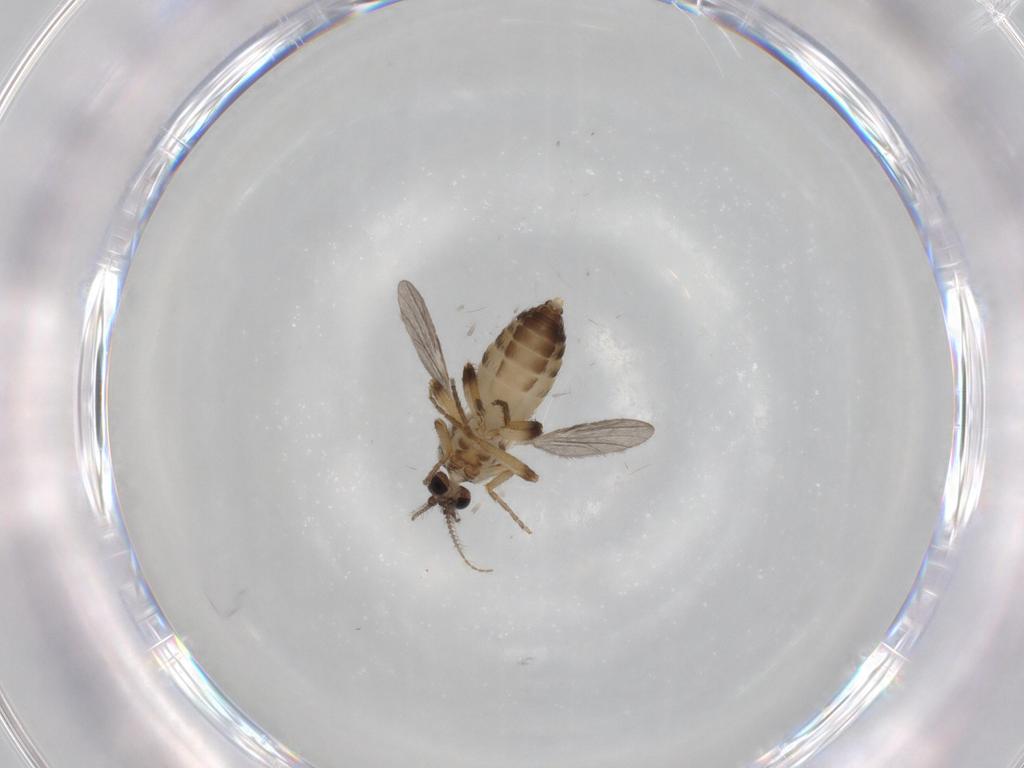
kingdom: Animalia
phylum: Arthropoda
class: Insecta
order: Diptera
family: Ceratopogonidae
